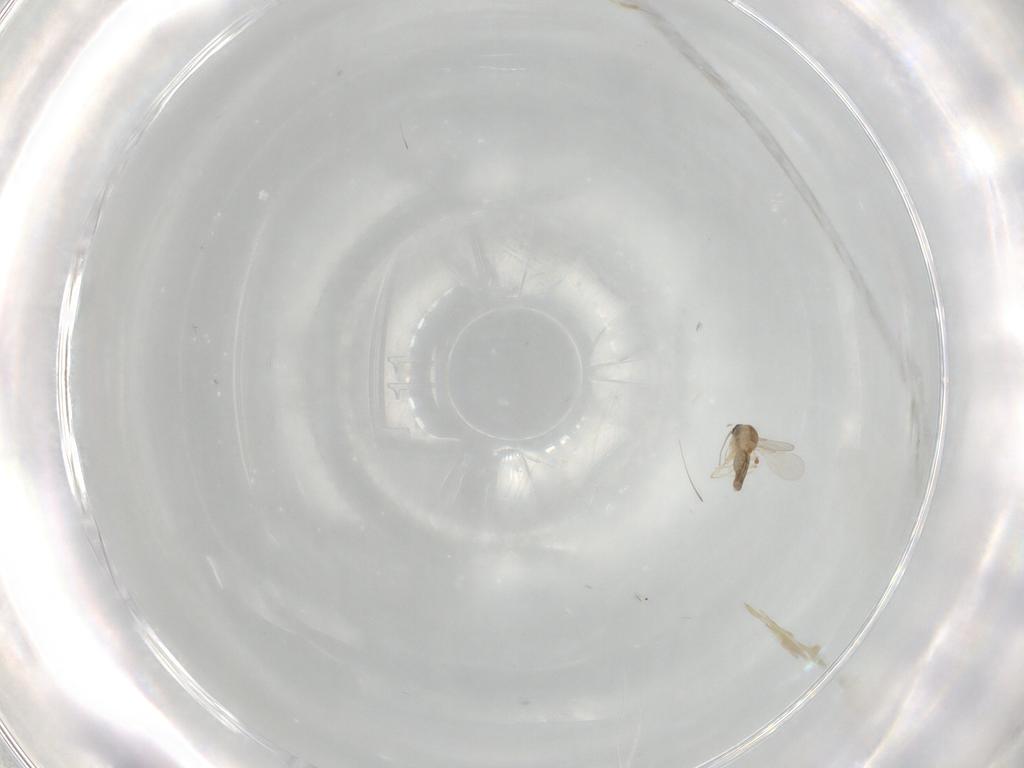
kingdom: Animalia
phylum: Arthropoda
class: Insecta
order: Diptera
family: Ceratopogonidae
